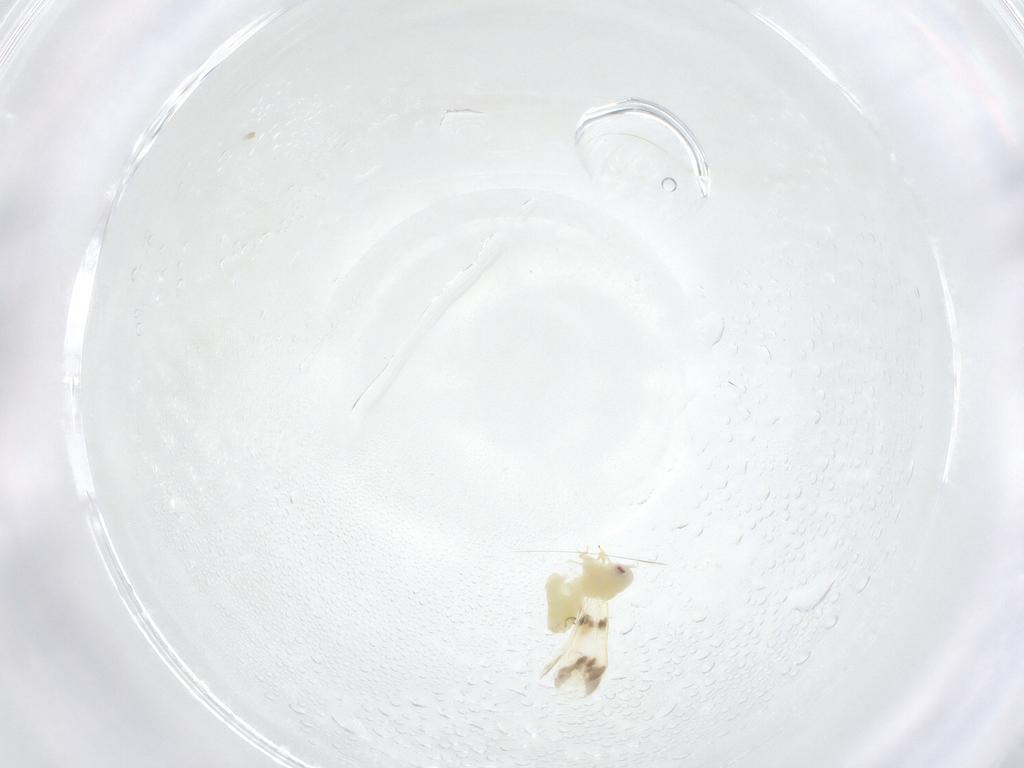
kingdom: Animalia
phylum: Arthropoda
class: Insecta
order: Hemiptera
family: Aleyrodidae
